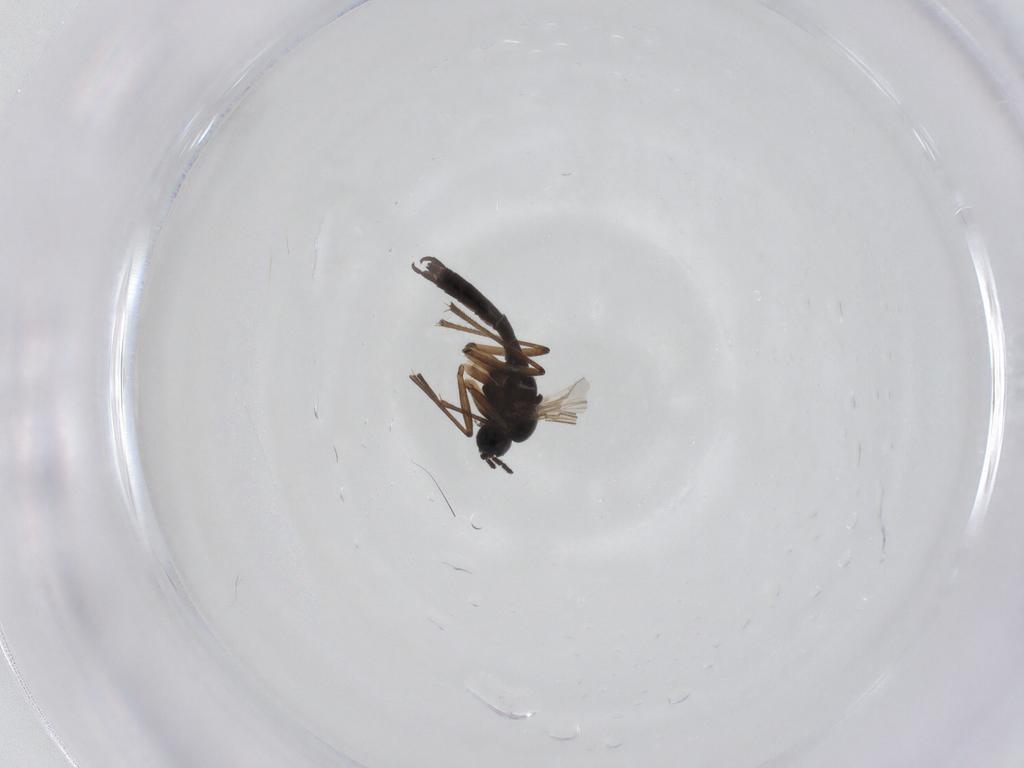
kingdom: Animalia
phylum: Arthropoda
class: Insecta
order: Diptera
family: Sciaridae
